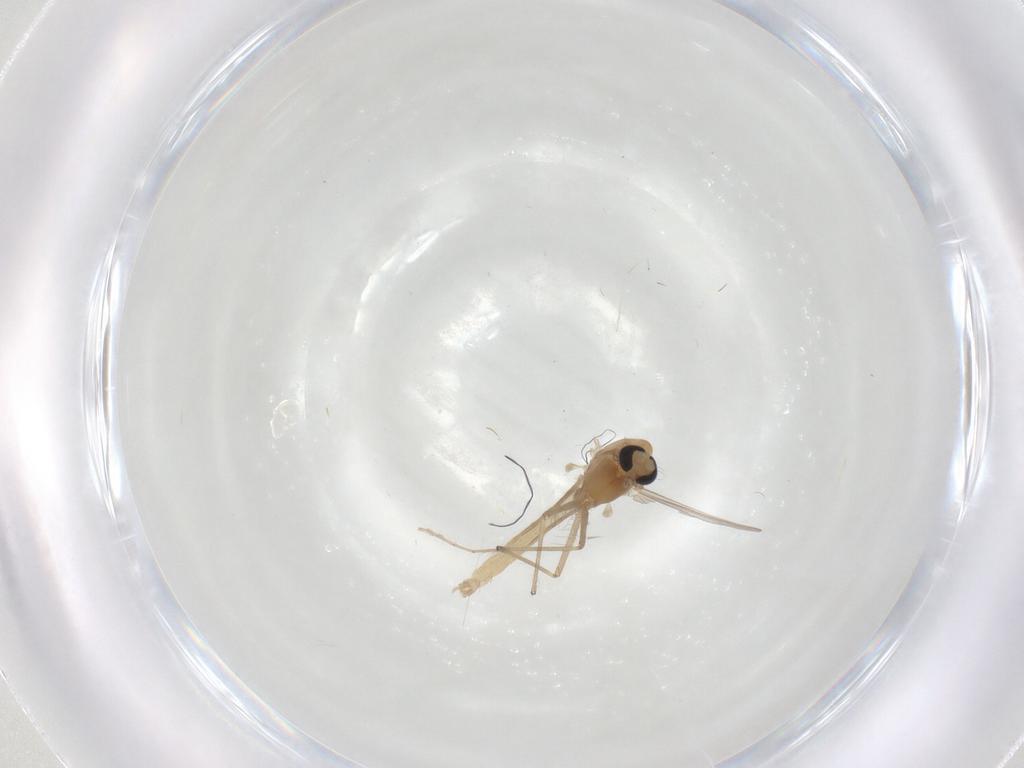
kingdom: Animalia
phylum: Arthropoda
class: Insecta
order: Diptera
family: Chironomidae
